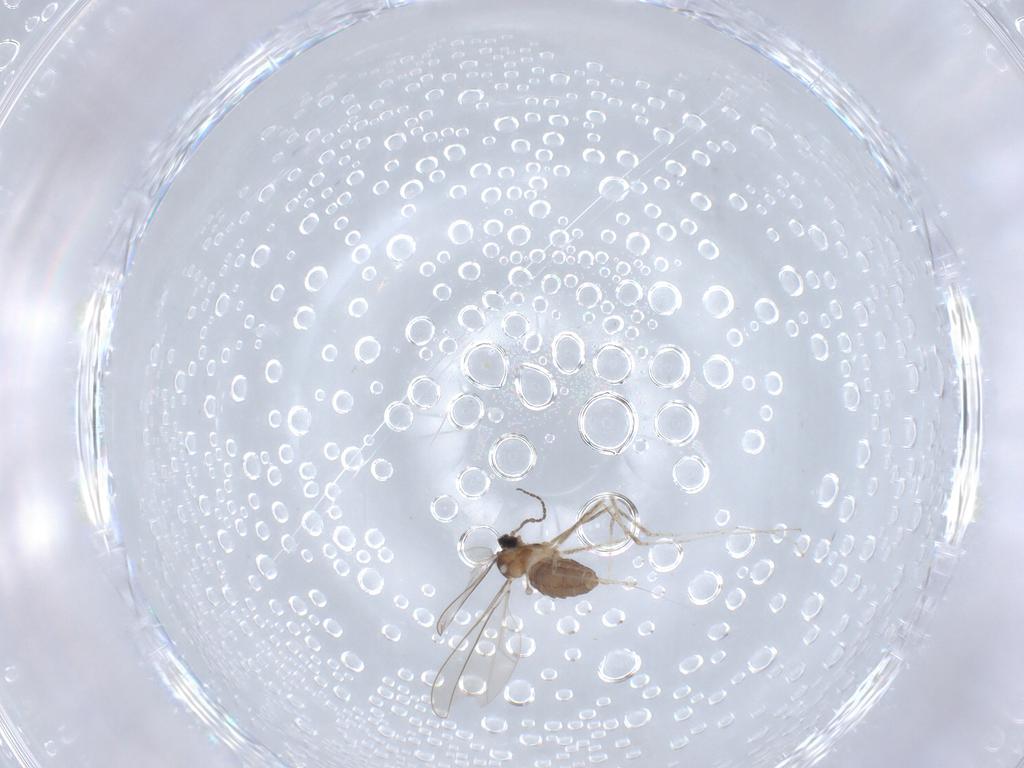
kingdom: Animalia
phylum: Arthropoda
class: Insecta
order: Diptera
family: Cecidomyiidae
